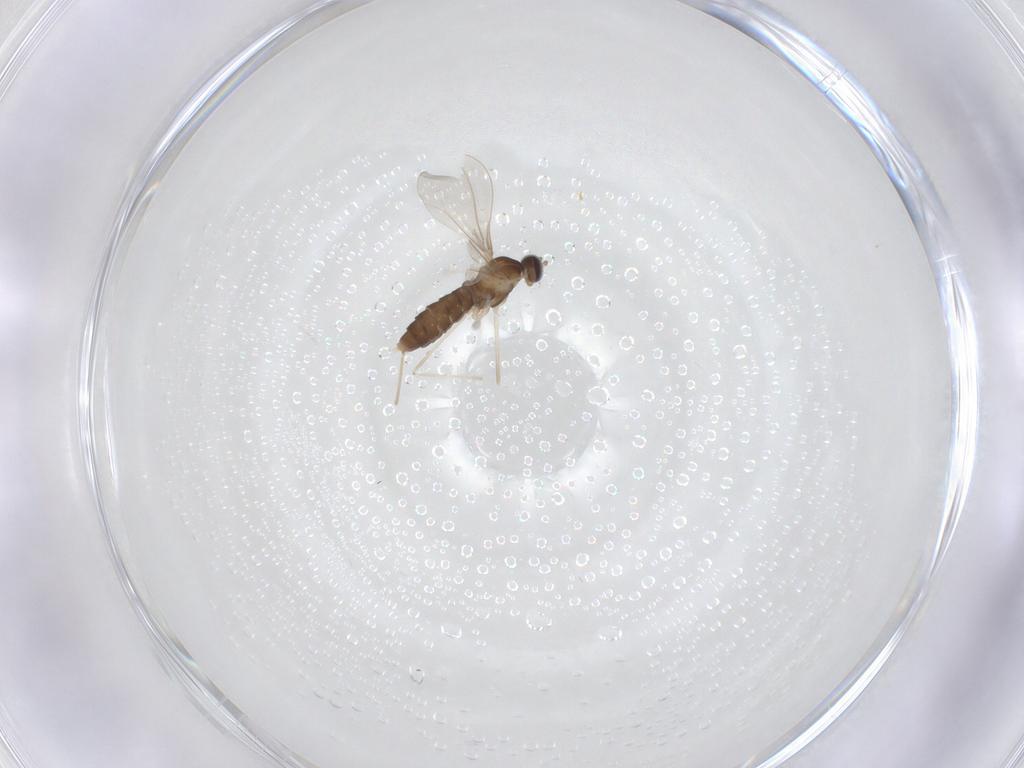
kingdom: Animalia
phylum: Arthropoda
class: Insecta
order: Diptera
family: Cecidomyiidae
